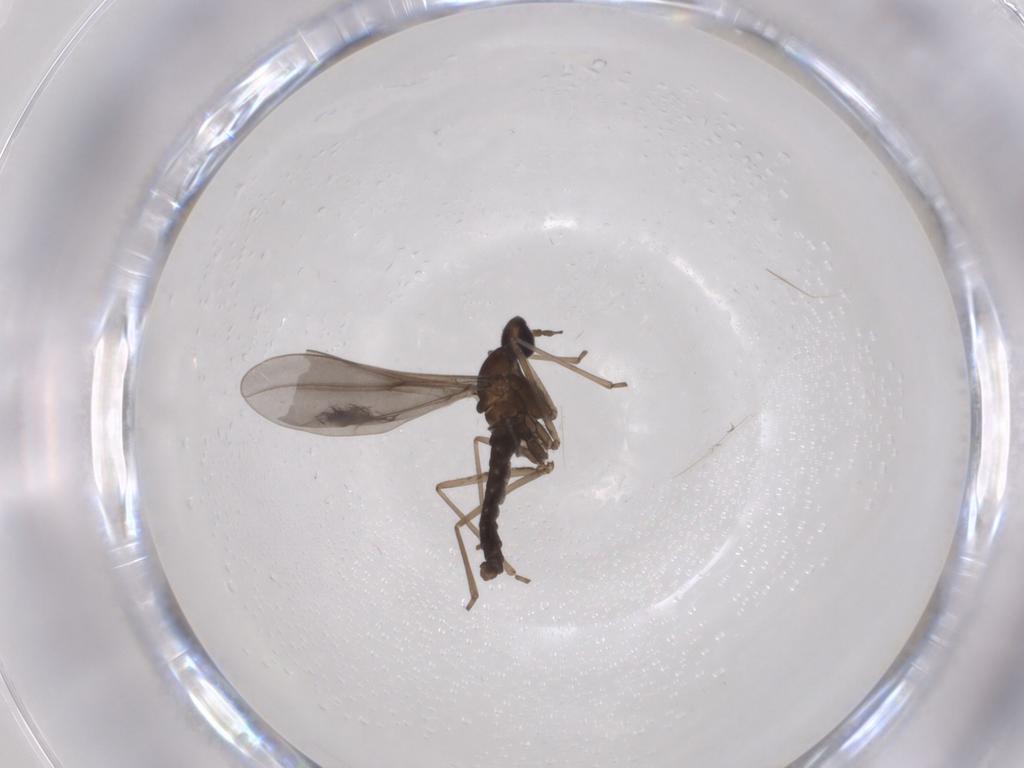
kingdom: Animalia
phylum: Arthropoda
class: Insecta
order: Diptera
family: Cecidomyiidae
